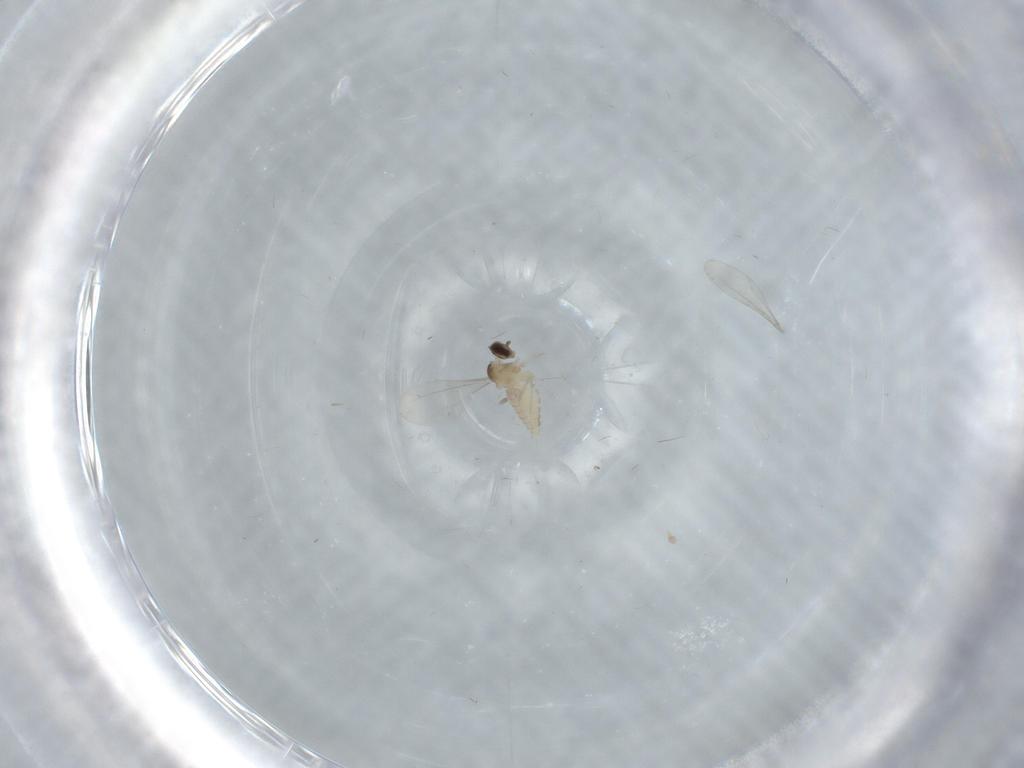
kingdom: Animalia
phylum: Arthropoda
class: Insecta
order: Diptera
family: Cecidomyiidae
